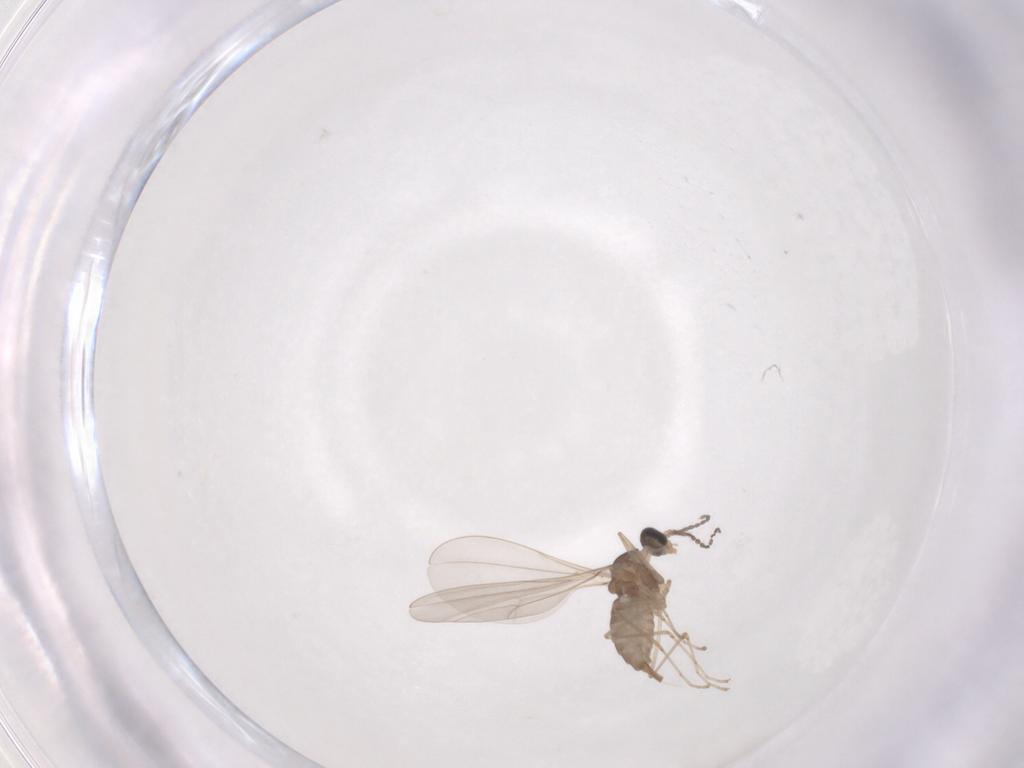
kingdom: Animalia
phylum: Arthropoda
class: Insecta
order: Diptera
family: Cecidomyiidae
